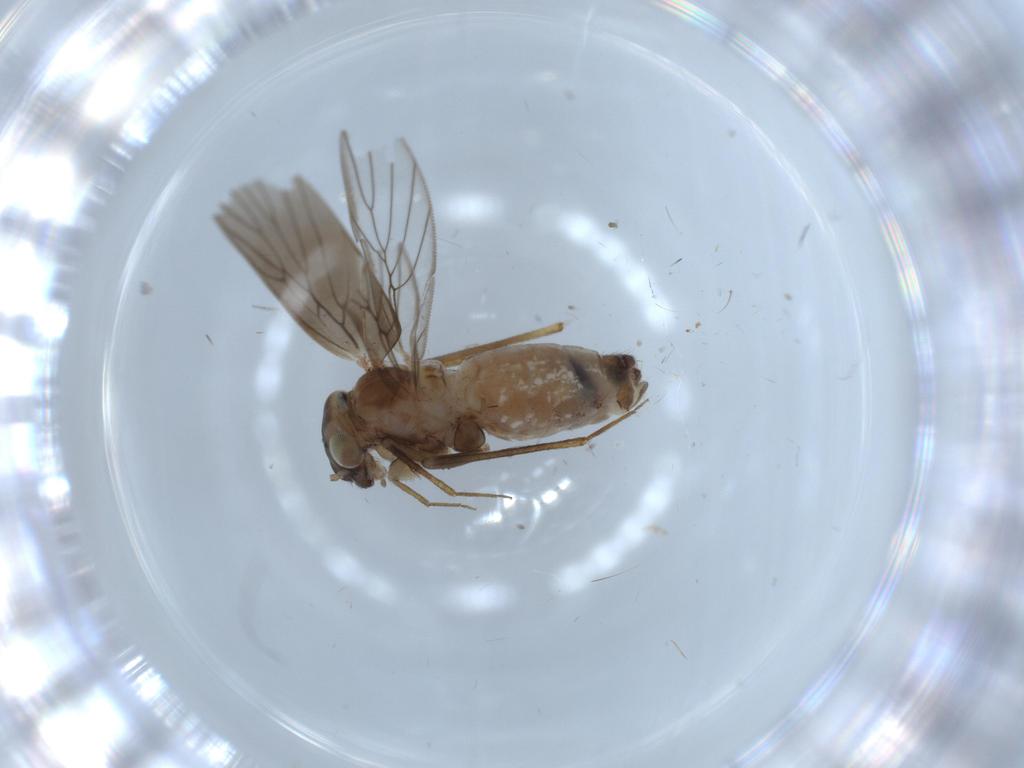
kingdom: Animalia
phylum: Arthropoda
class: Insecta
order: Psocodea
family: Lepidopsocidae
